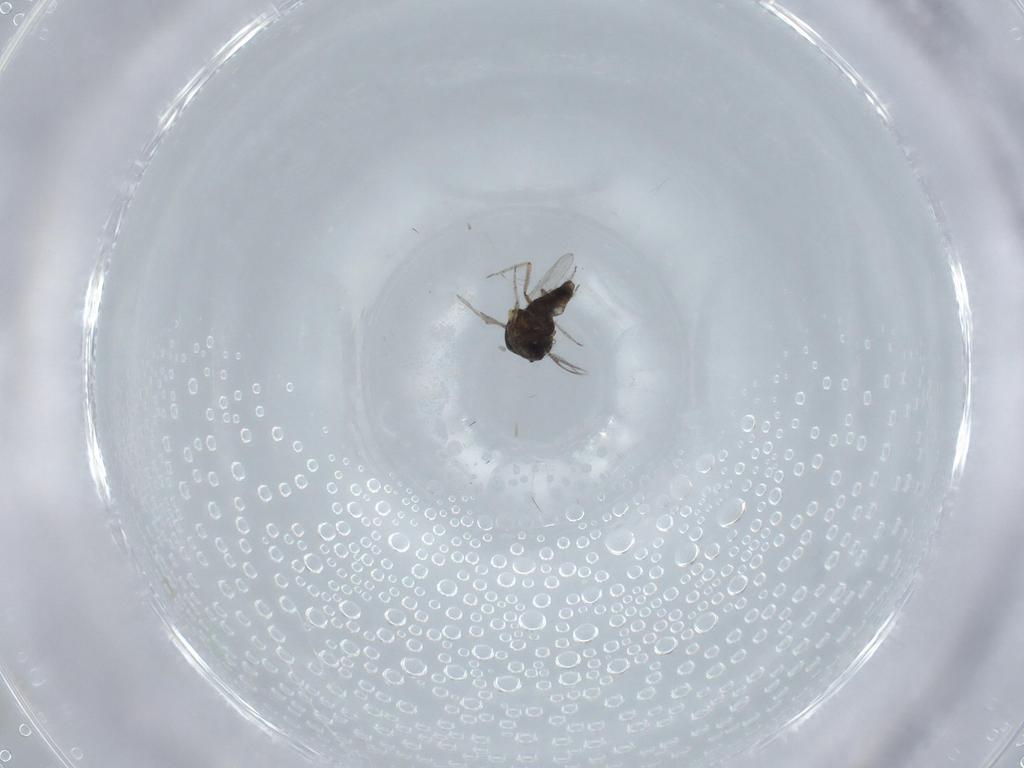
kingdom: Animalia
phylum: Arthropoda
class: Insecta
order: Diptera
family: Ceratopogonidae
